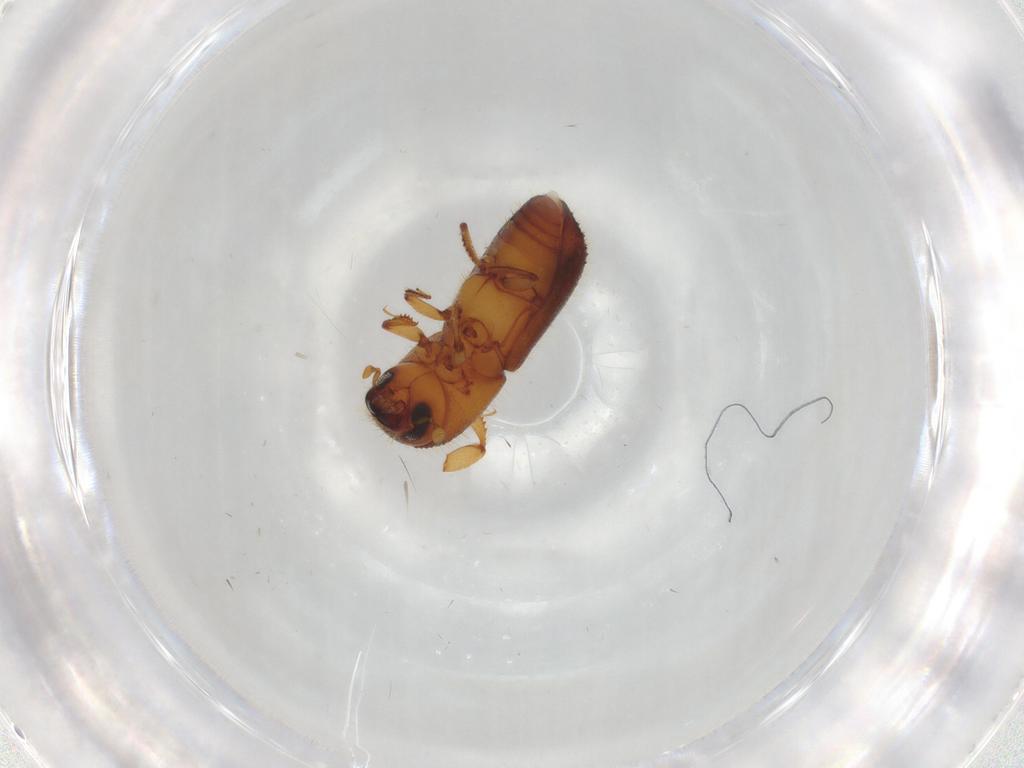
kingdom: Animalia
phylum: Arthropoda
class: Insecta
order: Coleoptera
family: Curculionidae
